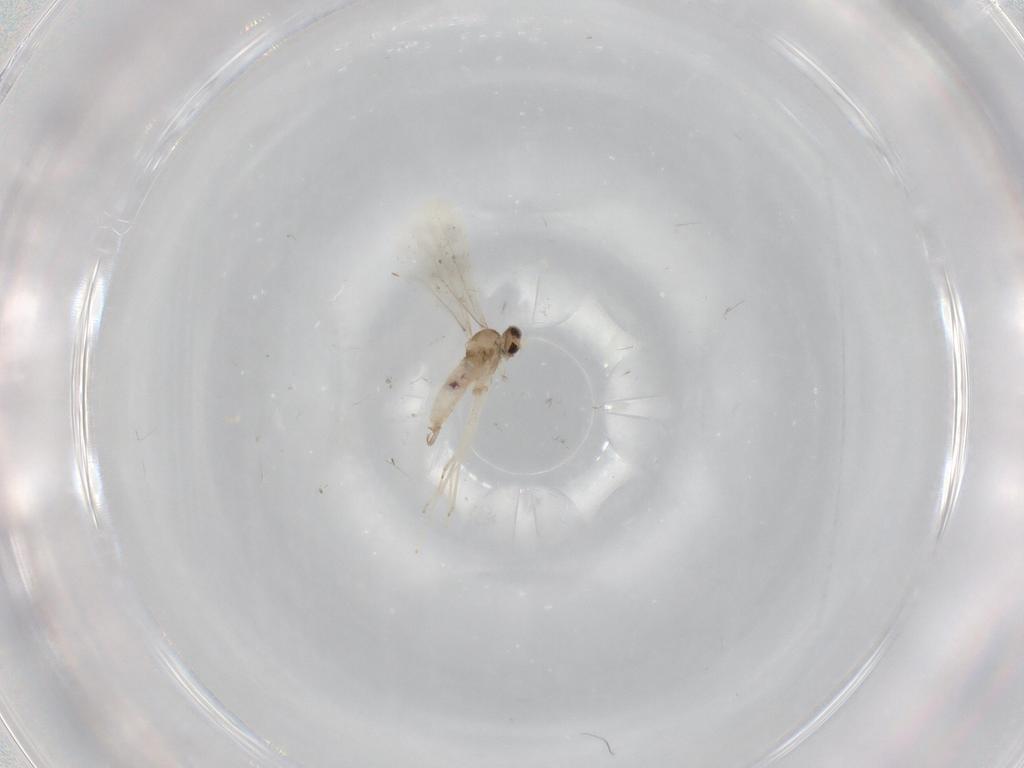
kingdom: Animalia
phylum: Arthropoda
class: Insecta
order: Diptera
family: Cecidomyiidae
